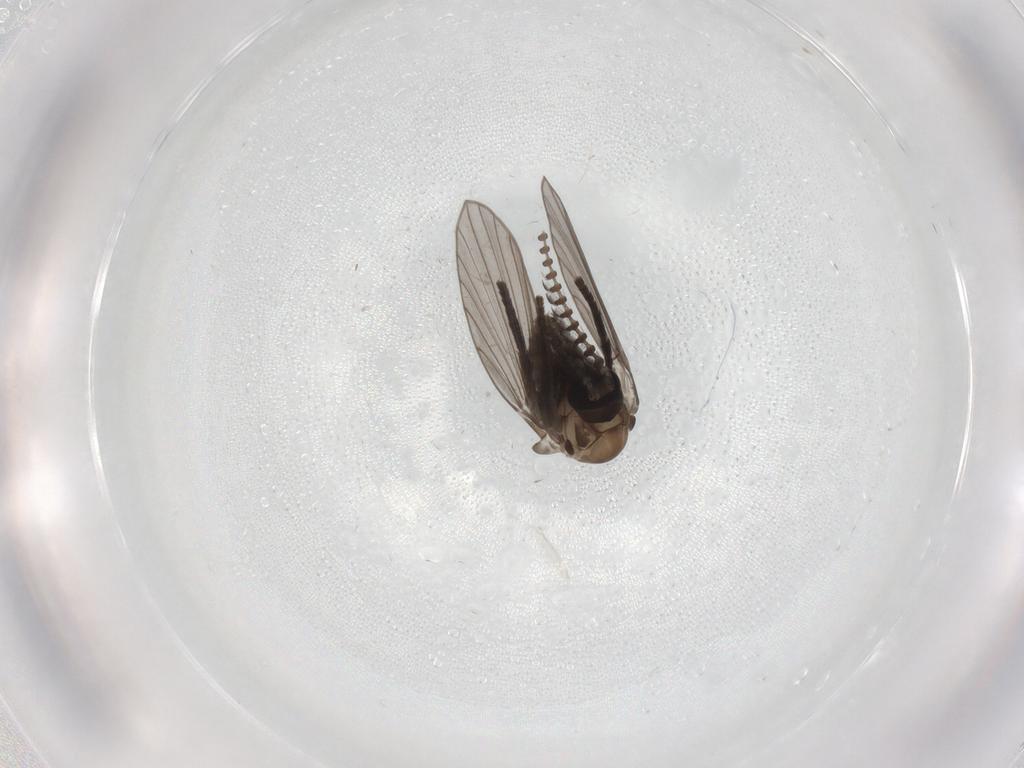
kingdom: Animalia
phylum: Arthropoda
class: Insecta
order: Diptera
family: Psychodidae
